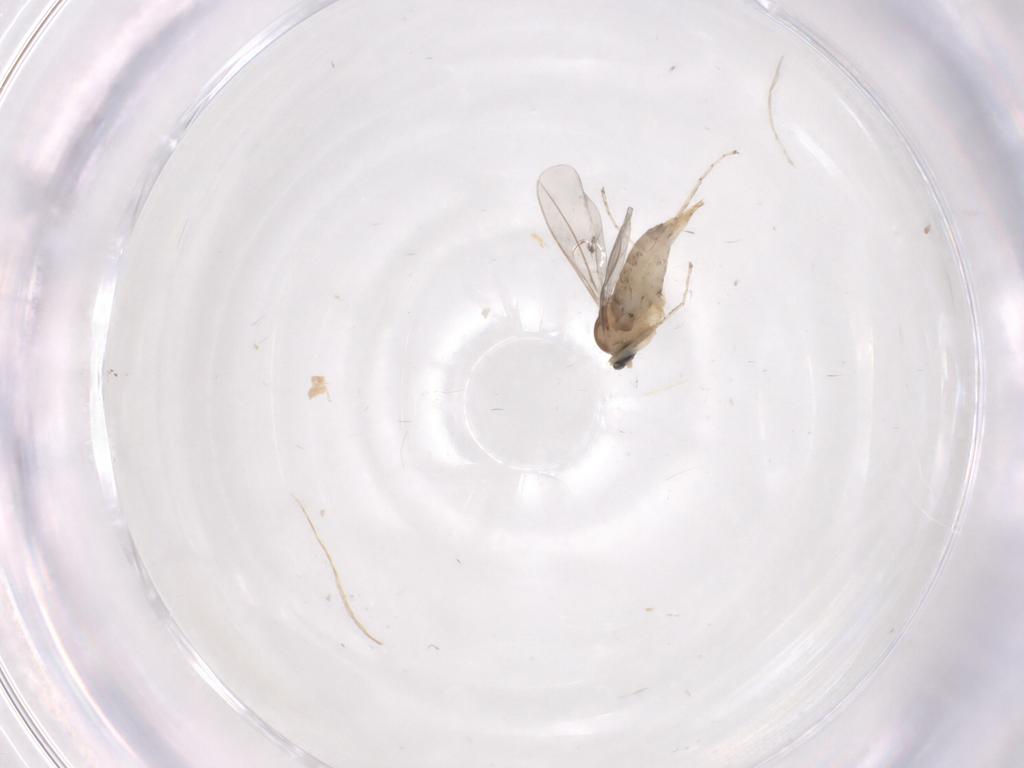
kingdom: Animalia
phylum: Arthropoda
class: Insecta
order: Diptera
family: Cecidomyiidae
